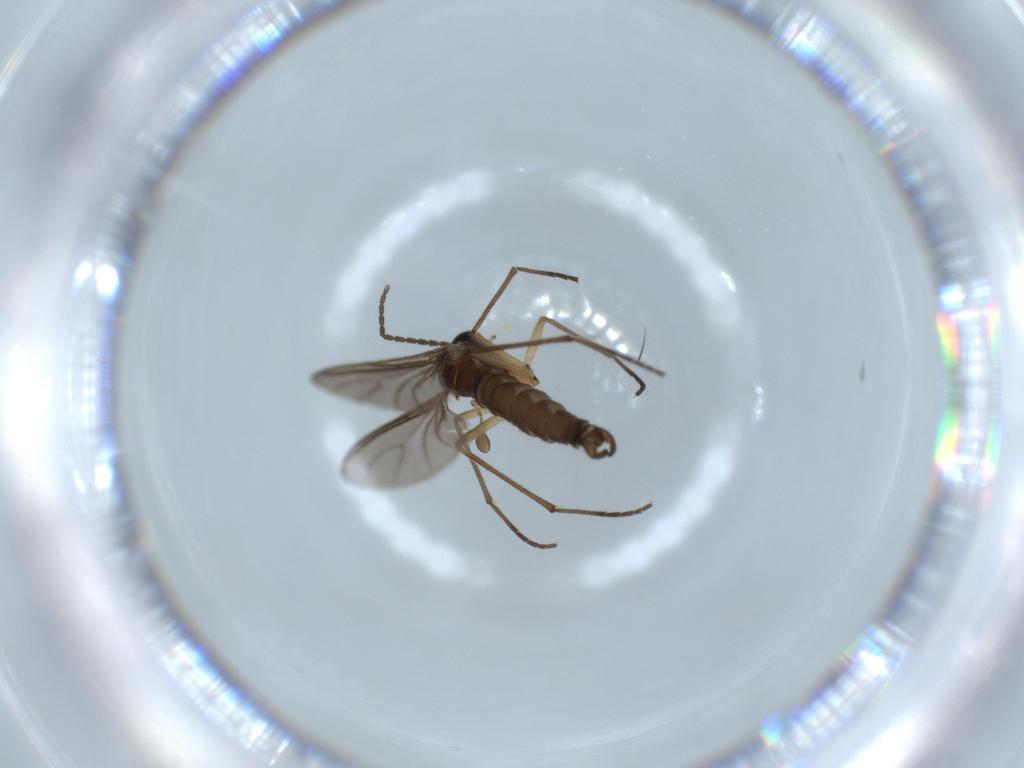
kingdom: Animalia
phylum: Arthropoda
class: Insecta
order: Diptera
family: Sciaridae
